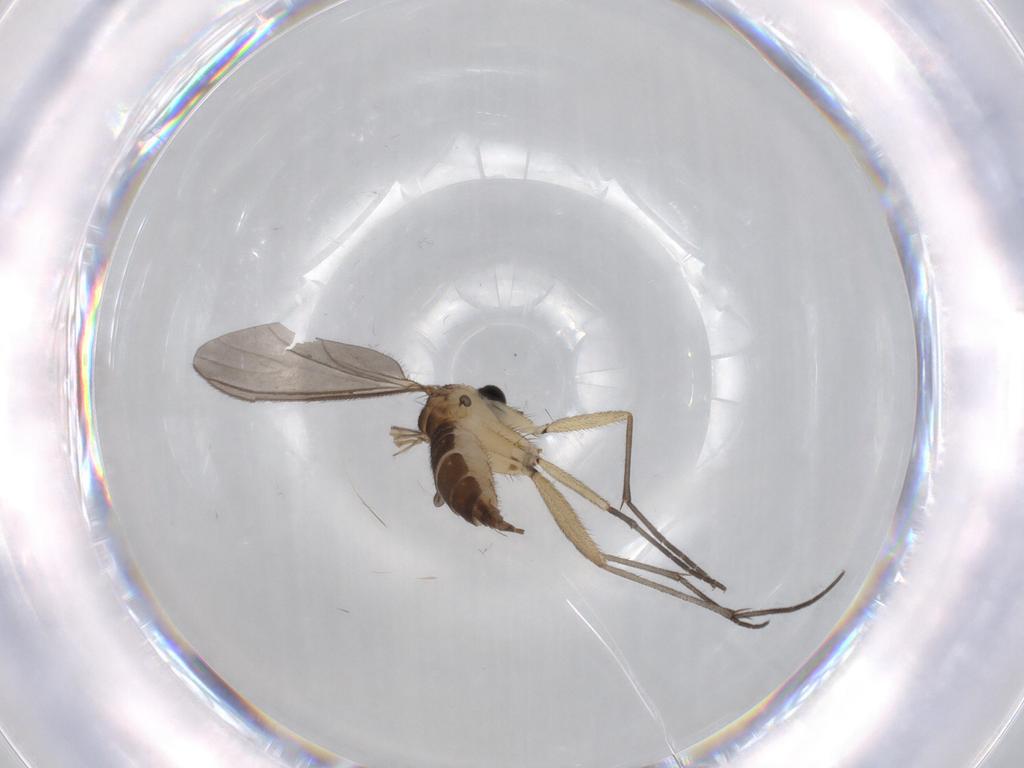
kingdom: Animalia
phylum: Arthropoda
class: Insecta
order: Diptera
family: Sciaridae
